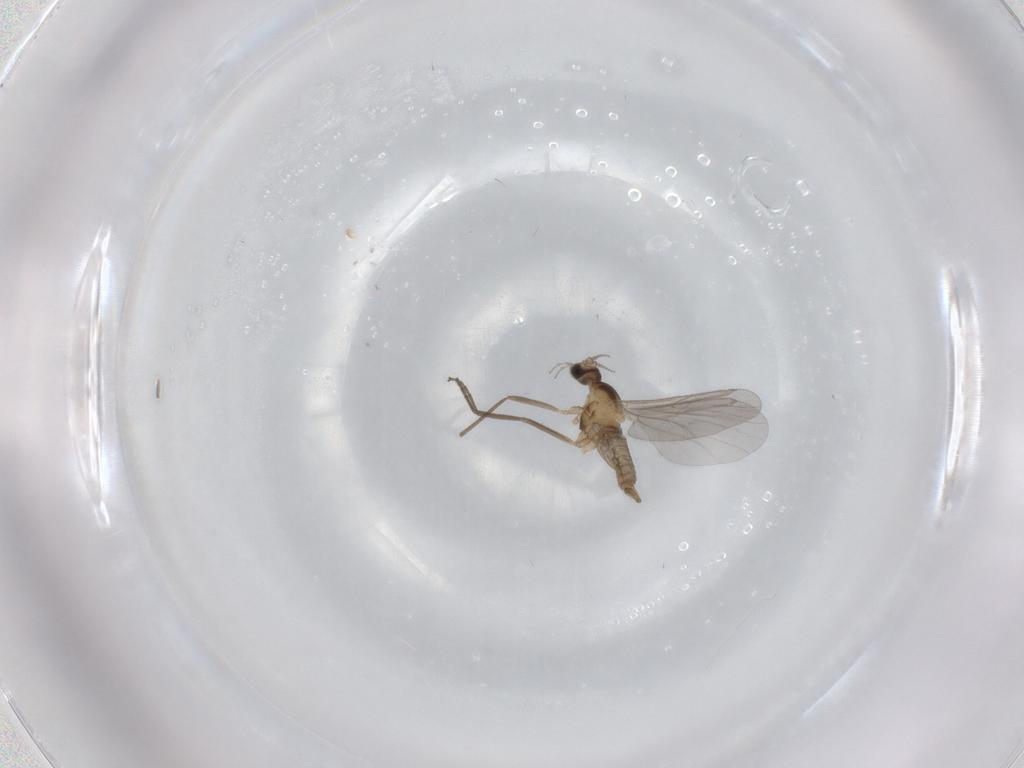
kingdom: Animalia
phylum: Arthropoda
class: Insecta
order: Diptera
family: Cecidomyiidae
